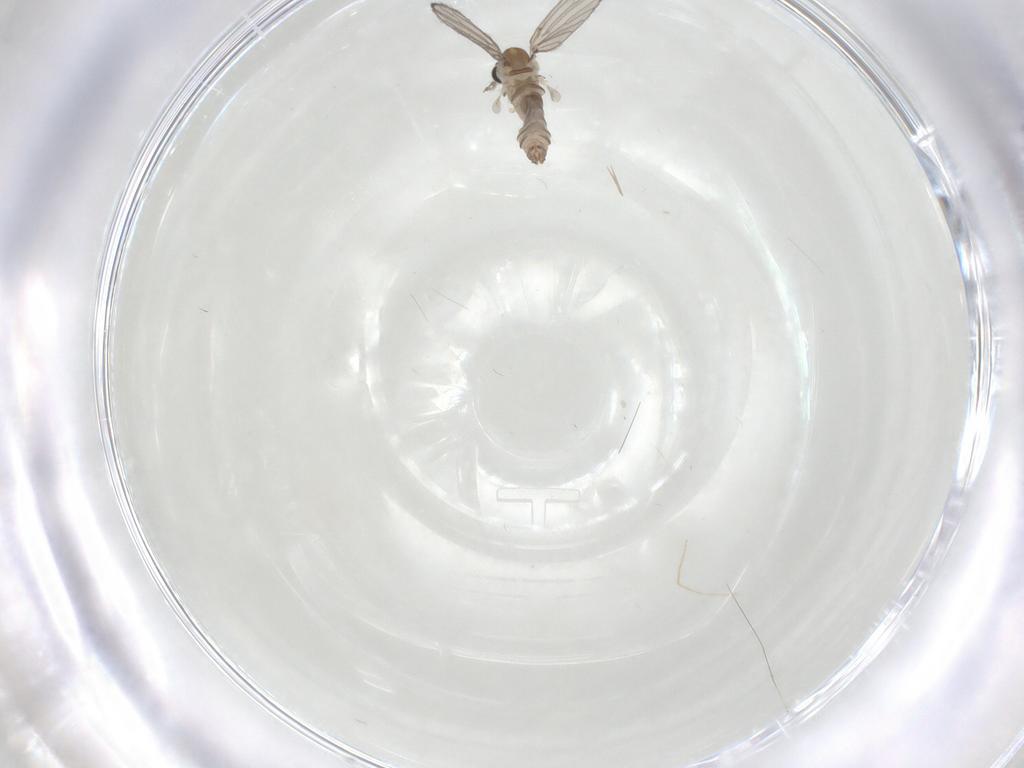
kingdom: Animalia
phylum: Arthropoda
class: Insecta
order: Diptera
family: Psychodidae
